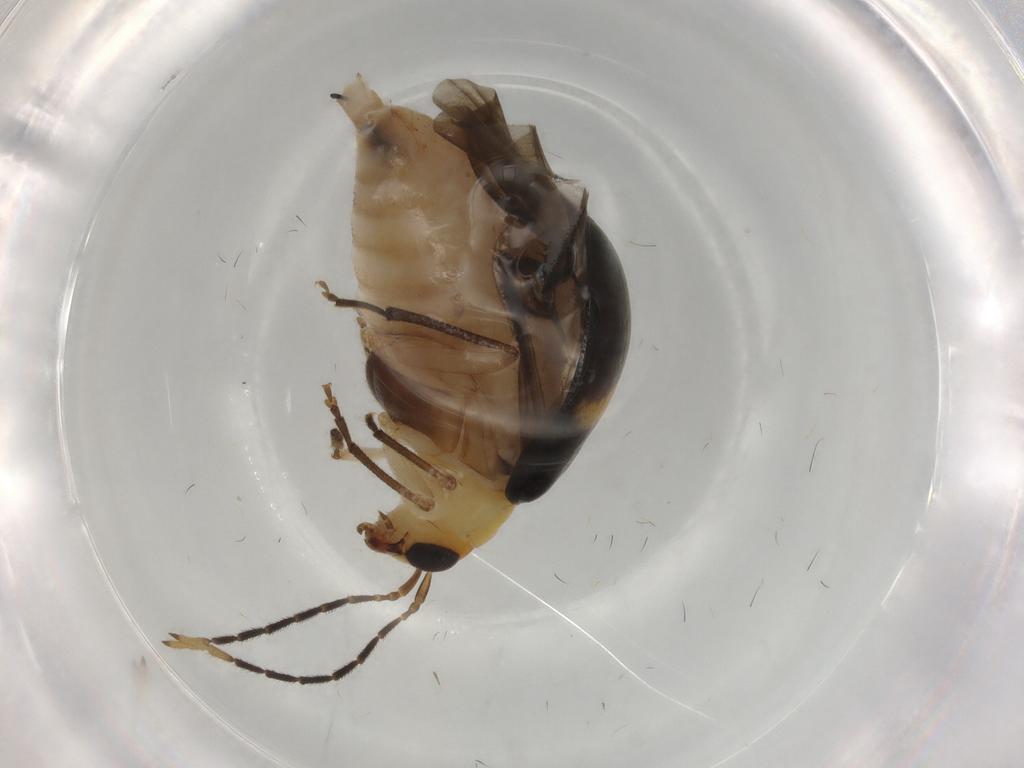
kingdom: Animalia
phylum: Arthropoda
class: Insecta
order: Coleoptera
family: Chrysomelidae
